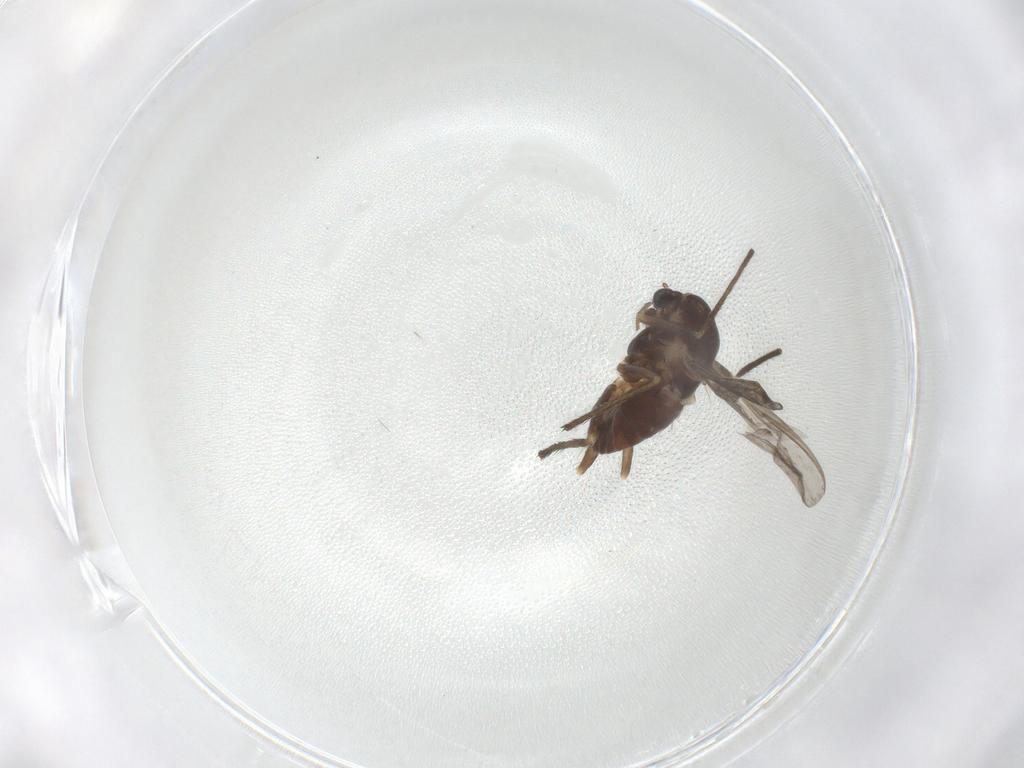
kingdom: Animalia
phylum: Arthropoda
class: Insecta
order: Diptera
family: Chironomidae
